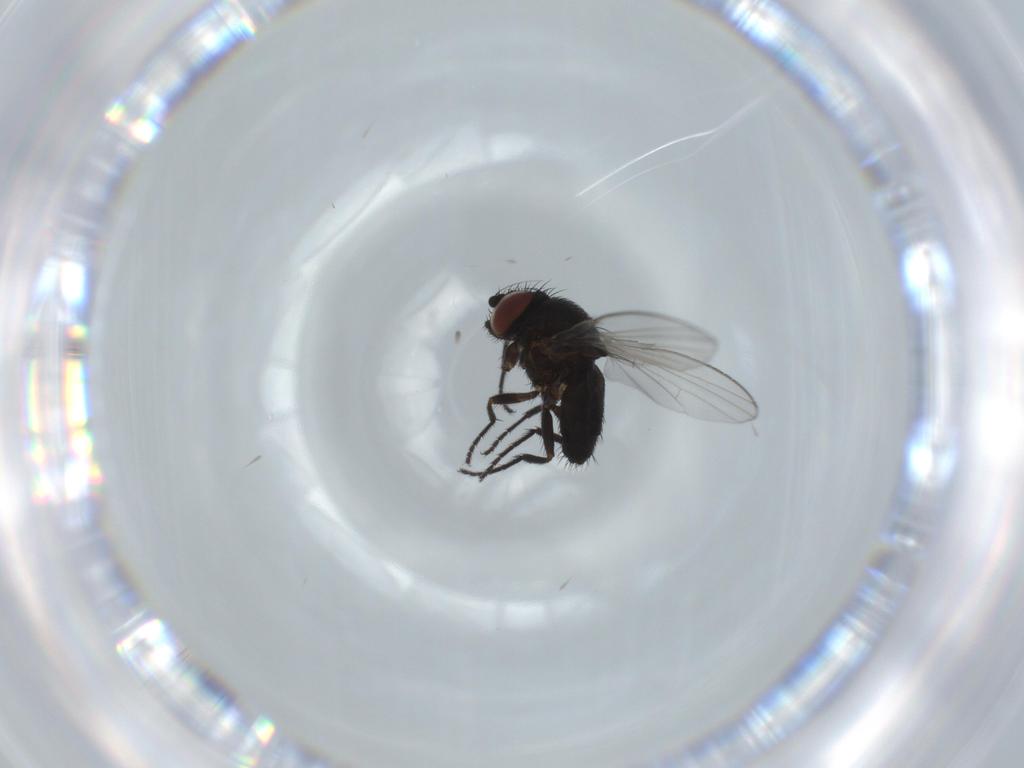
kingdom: Animalia
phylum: Arthropoda
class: Insecta
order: Diptera
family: Milichiidae
